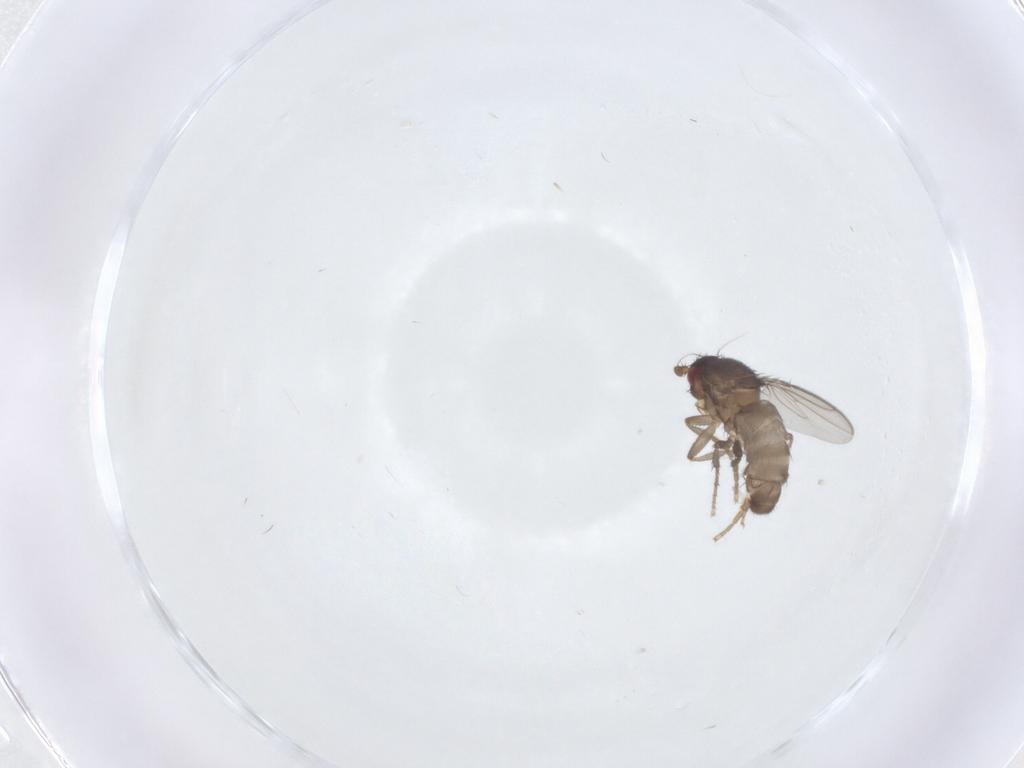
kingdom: Animalia
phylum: Arthropoda
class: Insecta
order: Diptera
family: Sphaeroceridae
